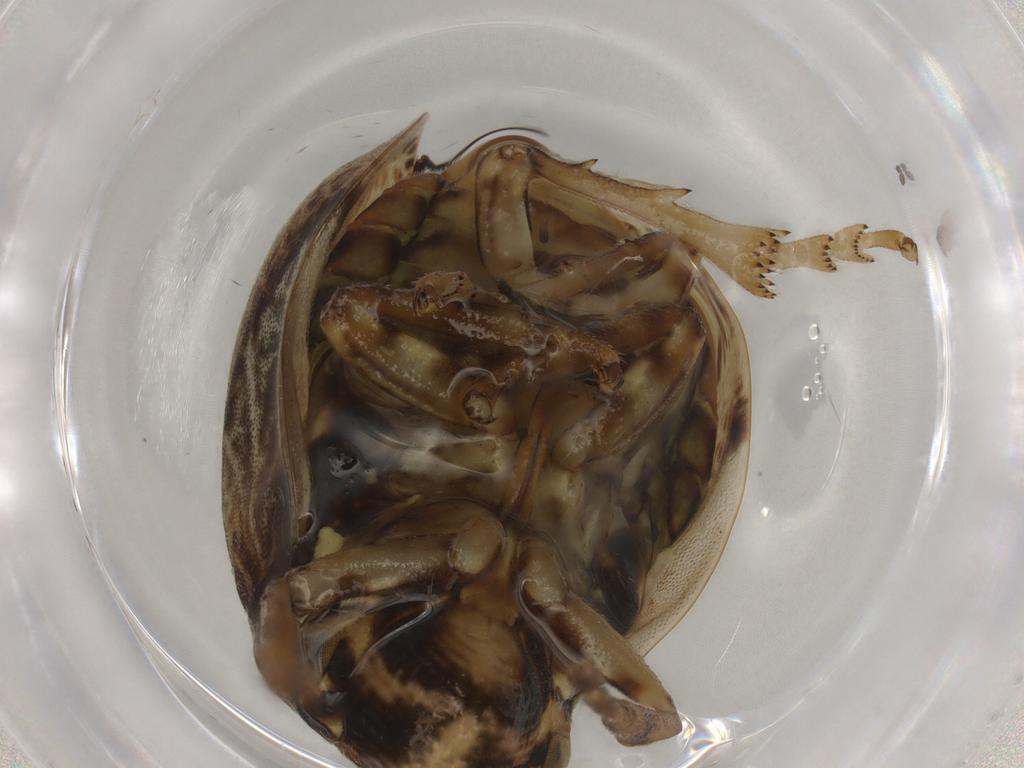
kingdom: Animalia
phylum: Arthropoda
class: Insecta
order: Hemiptera
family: Aphrophoridae
